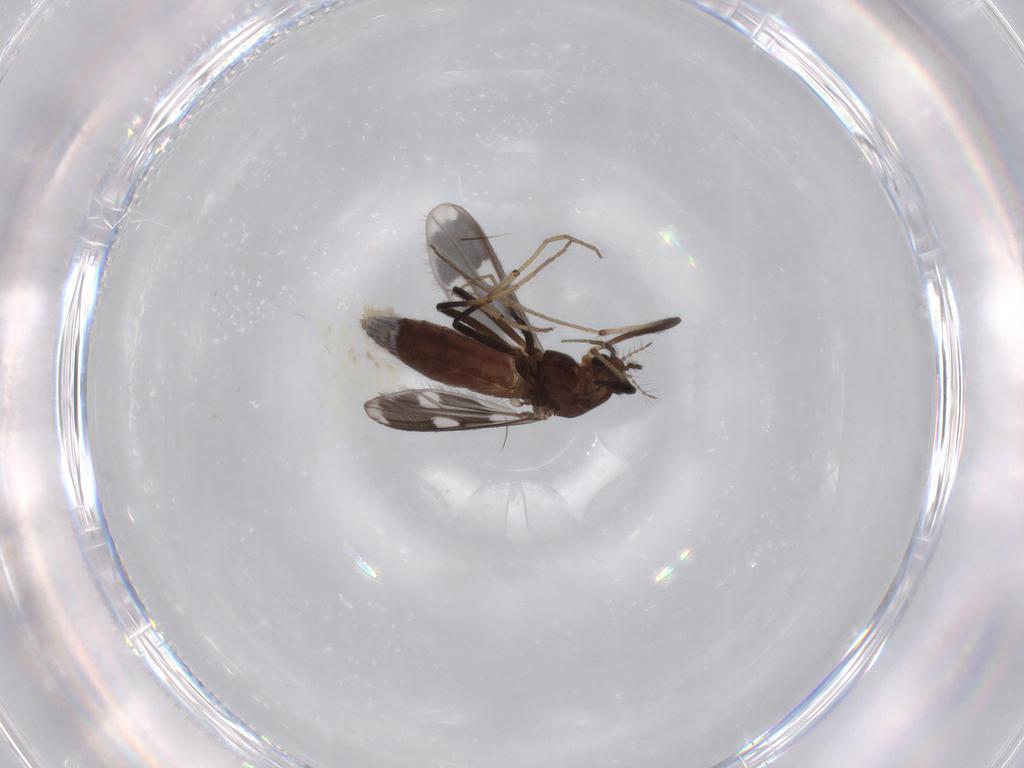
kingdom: Animalia
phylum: Arthropoda
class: Insecta
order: Diptera
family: Chironomidae
